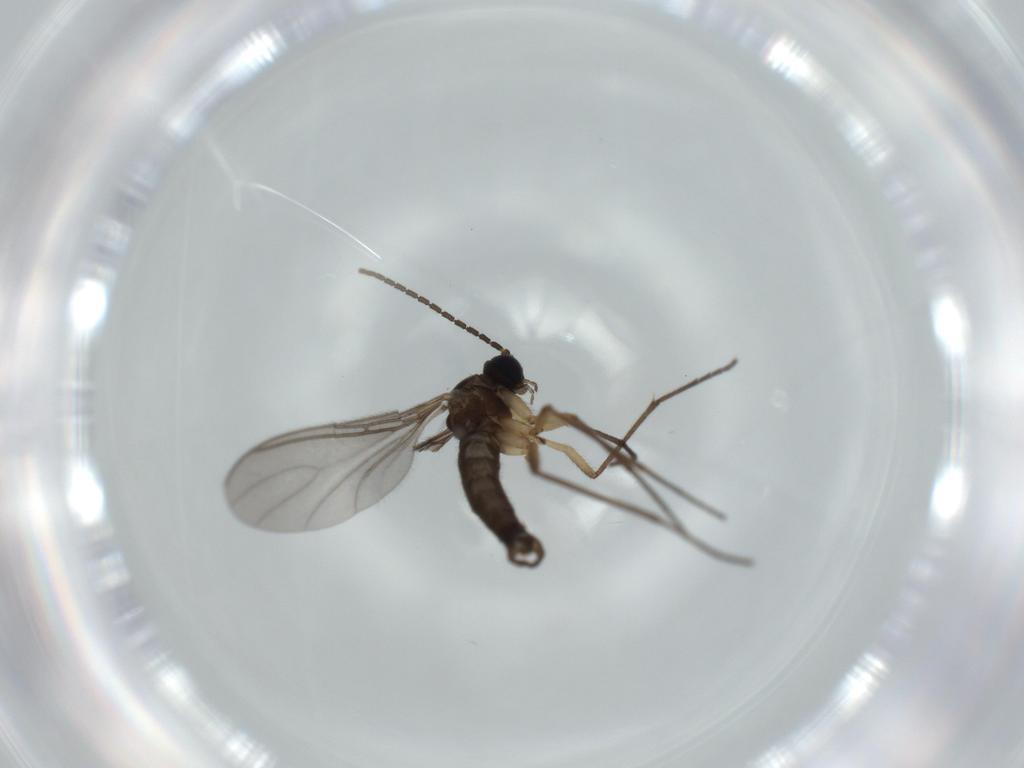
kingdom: Animalia
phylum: Arthropoda
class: Insecta
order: Diptera
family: Sciaridae
